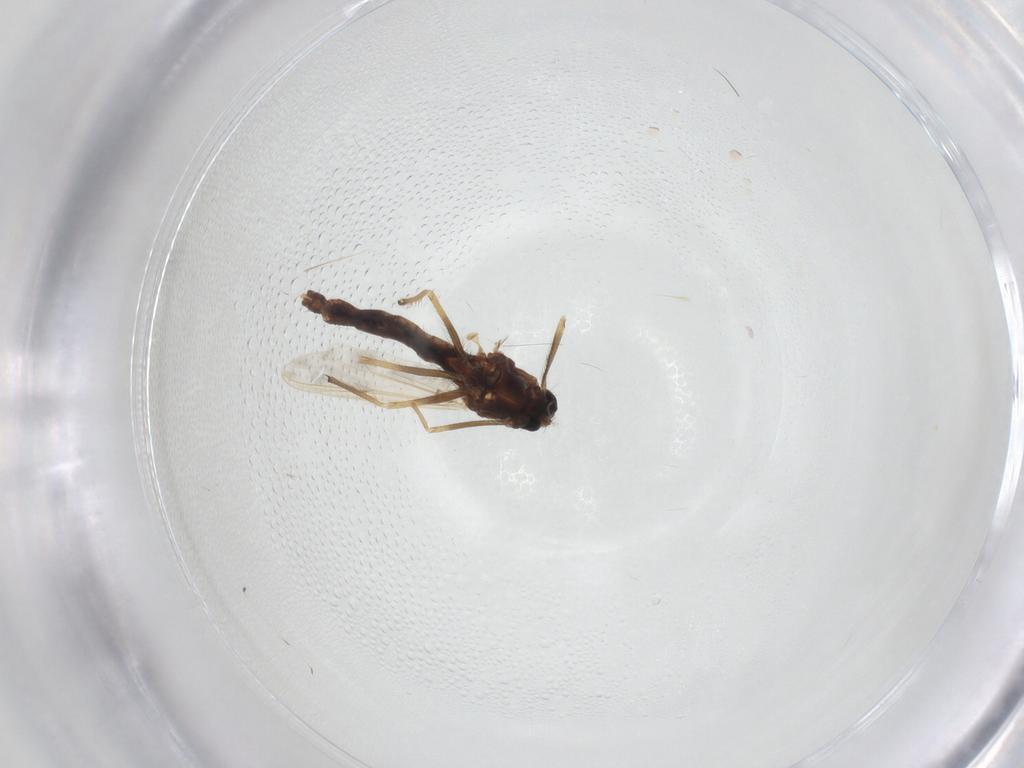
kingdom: Animalia
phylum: Arthropoda
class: Insecta
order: Diptera
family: Chironomidae
